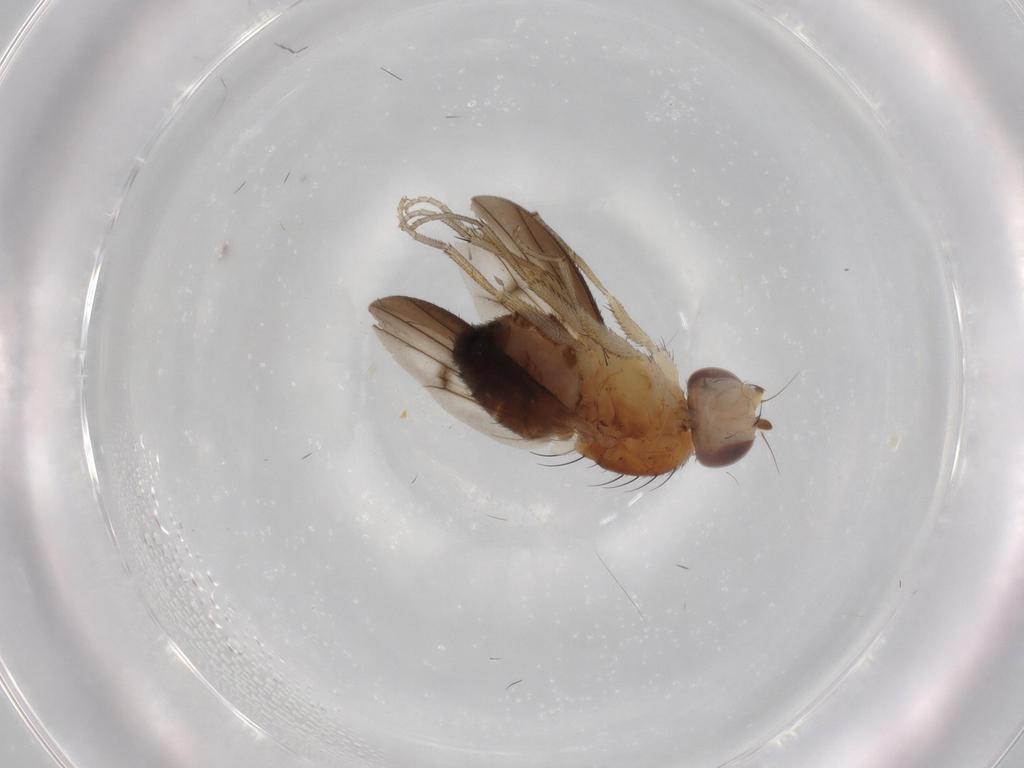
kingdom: Animalia
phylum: Arthropoda
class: Insecta
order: Diptera
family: Heleomyzidae
